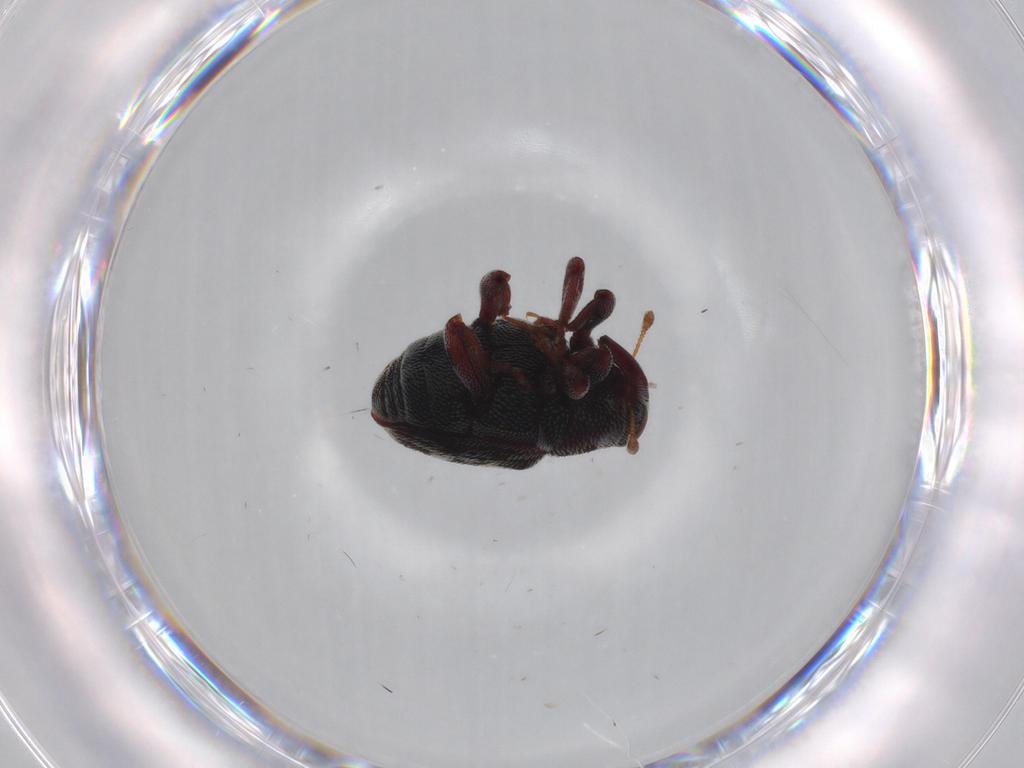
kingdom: Animalia
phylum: Arthropoda
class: Insecta
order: Coleoptera
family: Curculionidae
